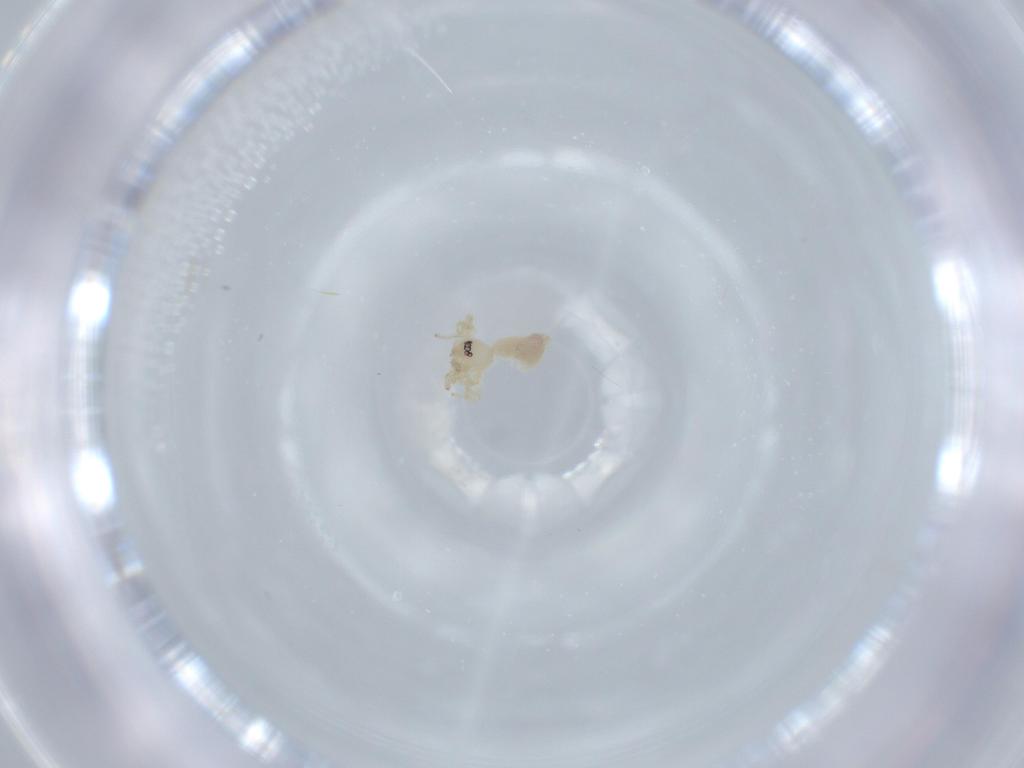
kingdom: Animalia
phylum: Arthropoda
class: Arachnida
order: Araneae
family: Oonopidae
